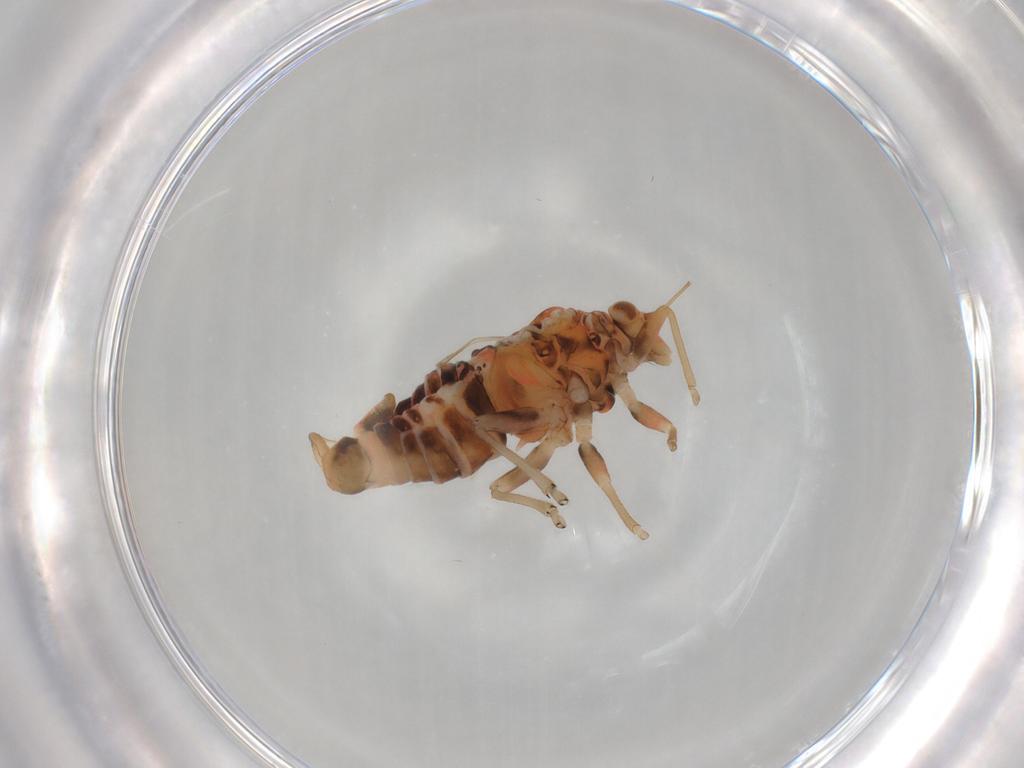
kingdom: Animalia
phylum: Arthropoda
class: Insecta
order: Hemiptera
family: Psyllidae
